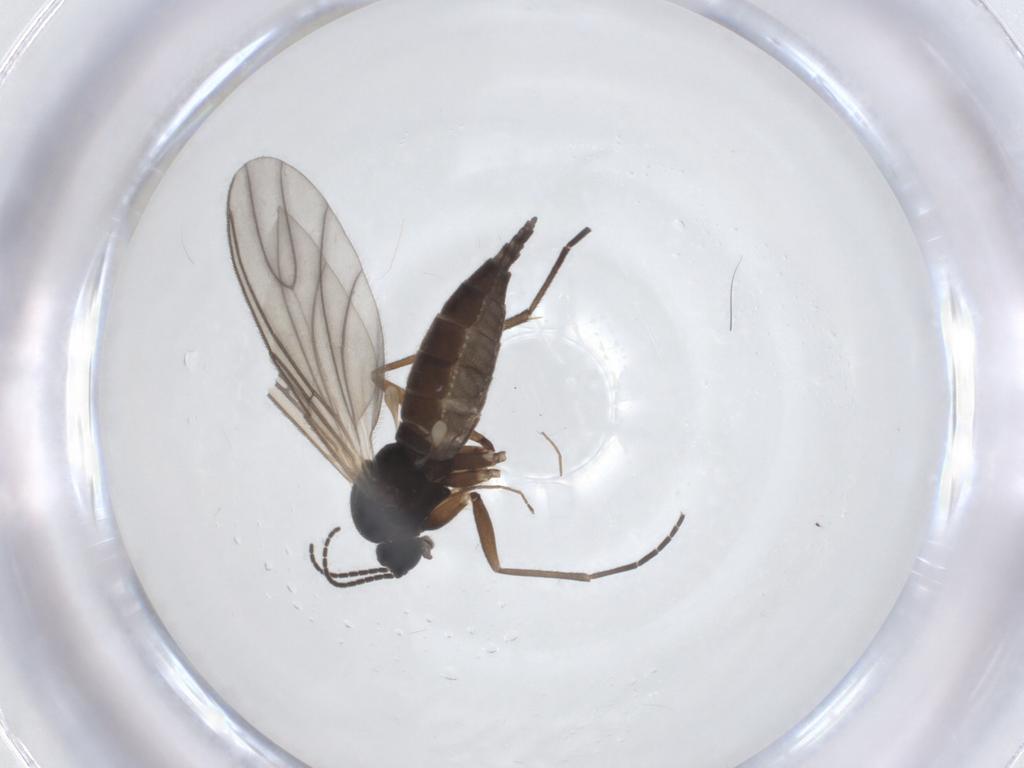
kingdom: Animalia
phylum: Arthropoda
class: Insecta
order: Diptera
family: Sciaridae
